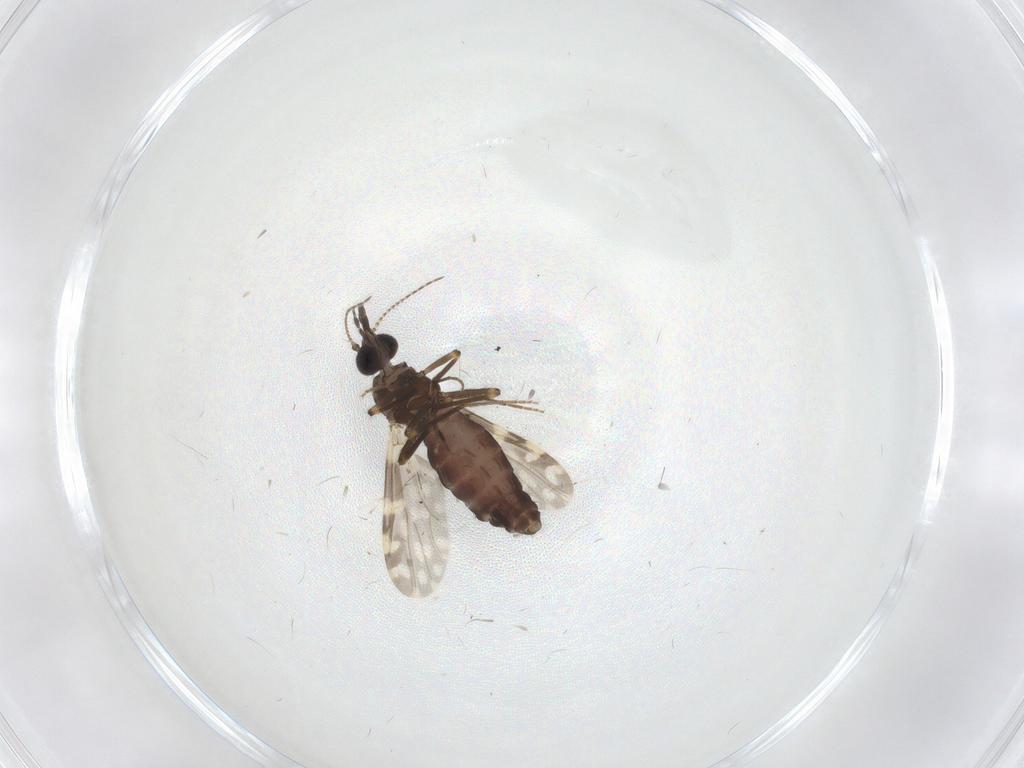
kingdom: Animalia
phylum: Arthropoda
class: Insecta
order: Diptera
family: Ceratopogonidae
